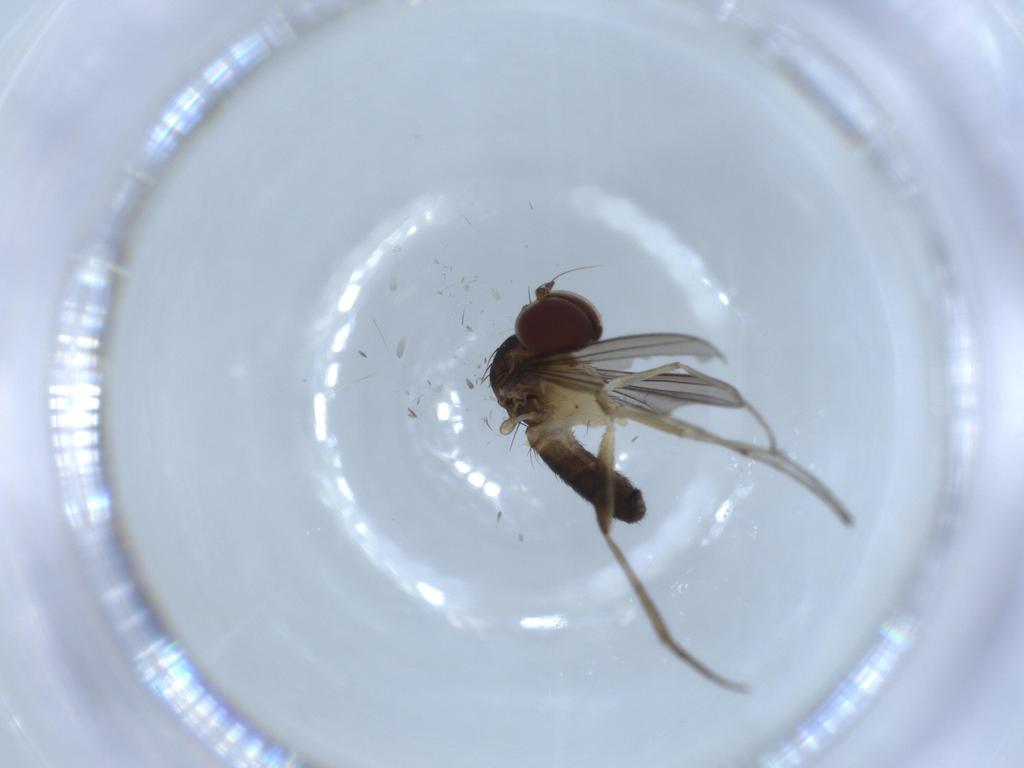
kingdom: Animalia
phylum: Arthropoda
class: Insecta
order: Diptera
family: Dolichopodidae
